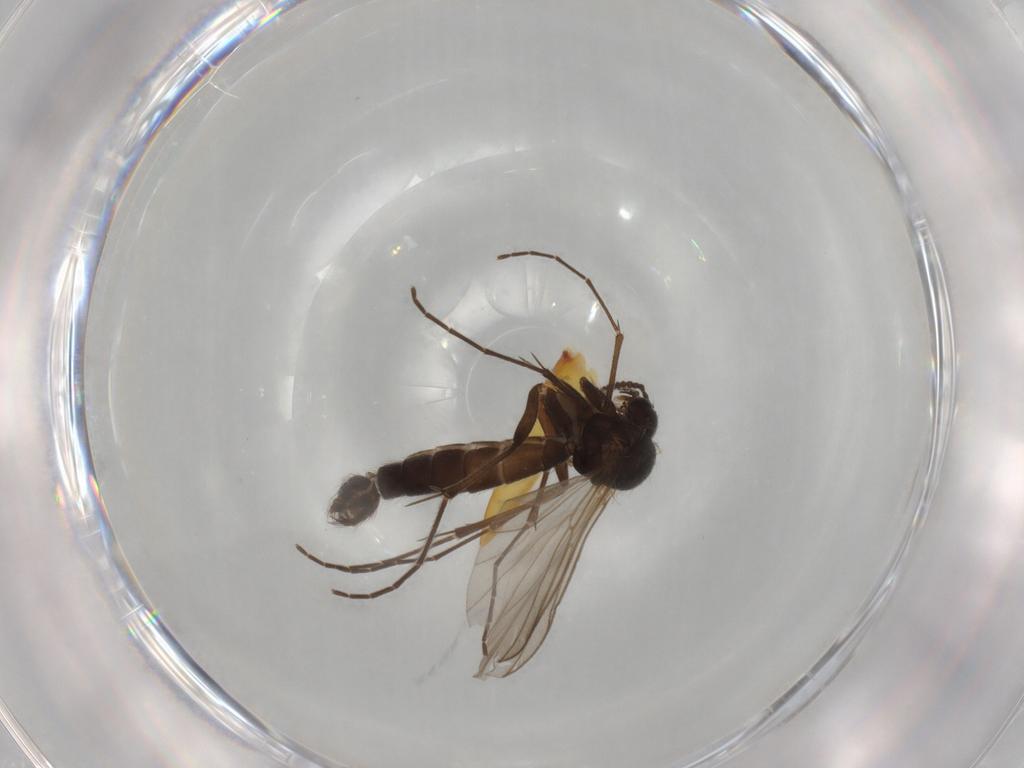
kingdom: Animalia
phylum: Arthropoda
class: Insecta
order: Diptera
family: Mycetophilidae
